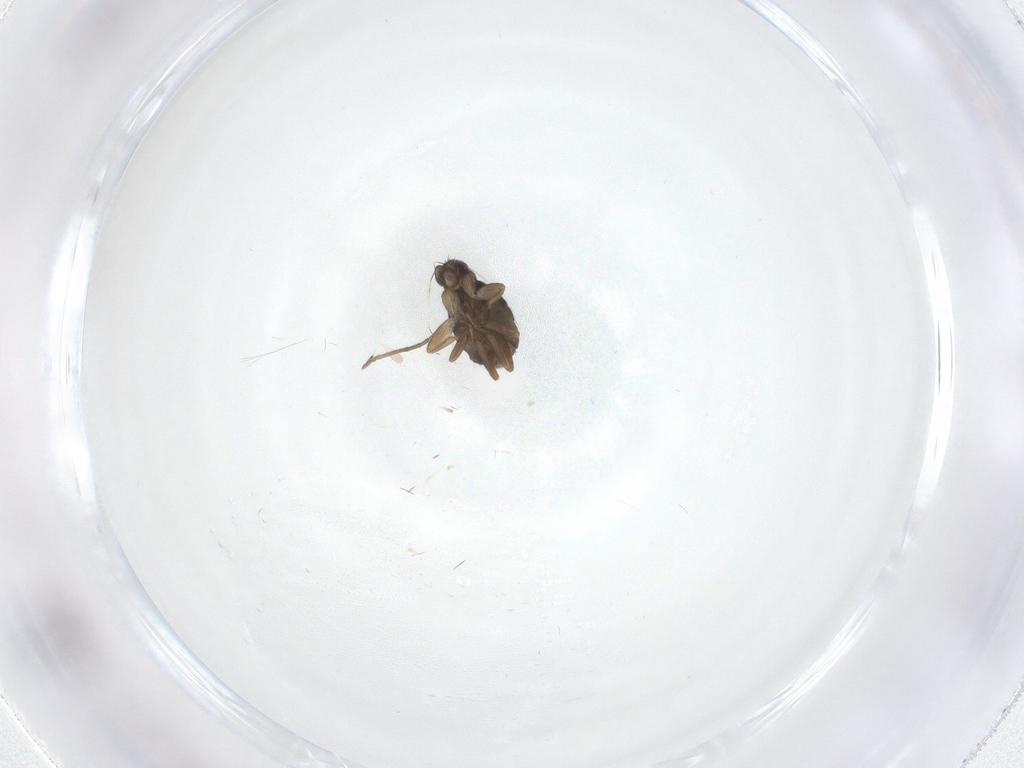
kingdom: Animalia
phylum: Arthropoda
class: Insecta
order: Diptera
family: Phoridae
